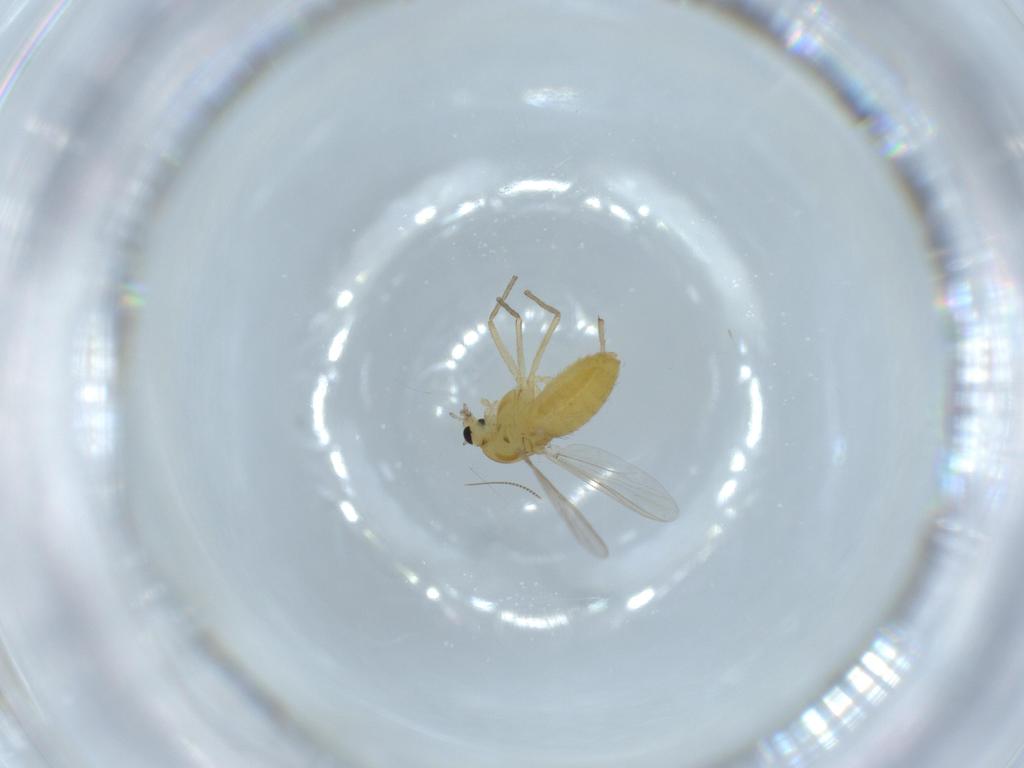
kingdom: Animalia
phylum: Arthropoda
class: Insecta
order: Diptera
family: Chironomidae
